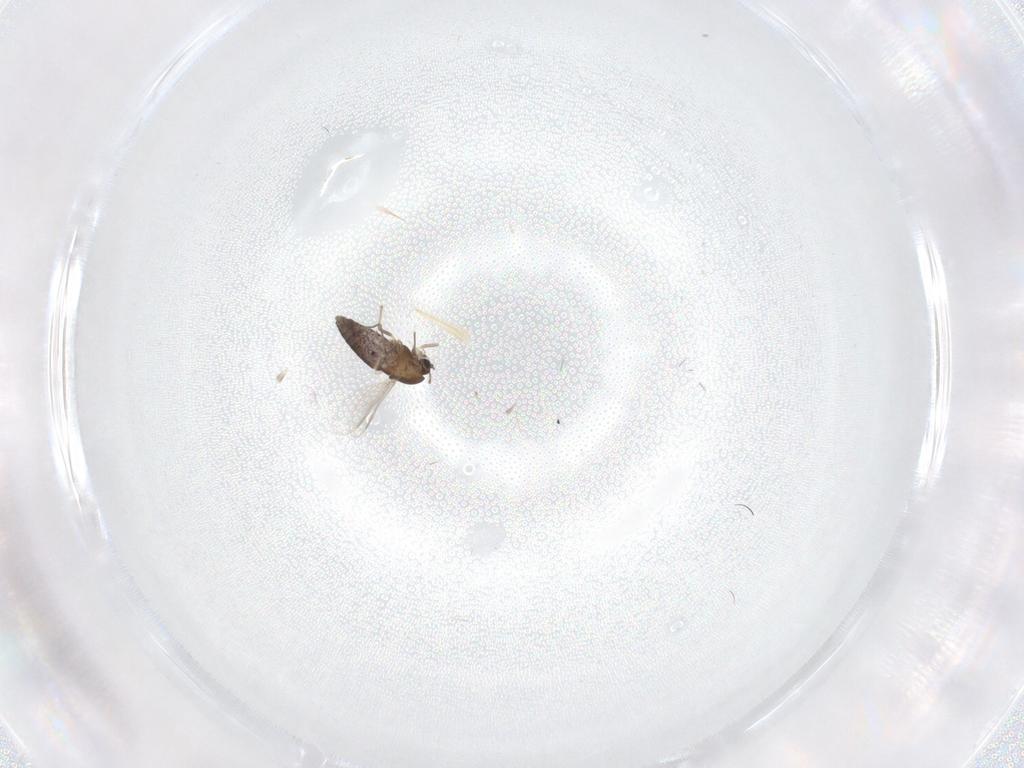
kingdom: Animalia
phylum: Arthropoda
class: Insecta
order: Diptera
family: Chironomidae
